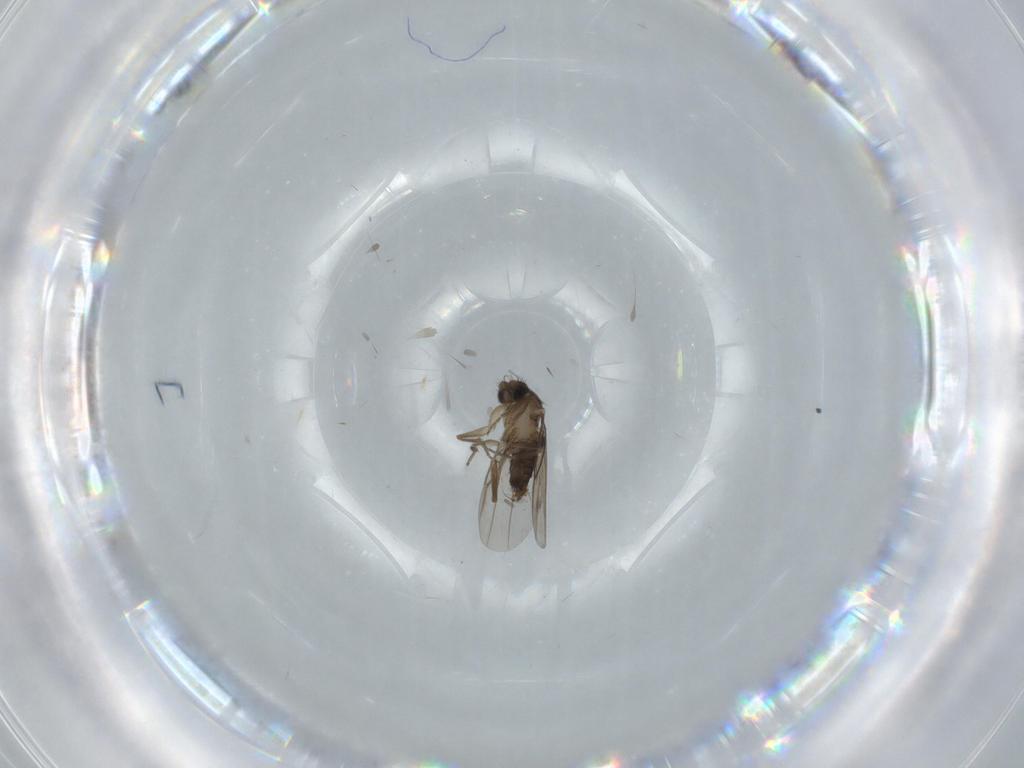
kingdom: Animalia
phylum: Arthropoda
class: Insecta
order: Diptera
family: Phoridae
